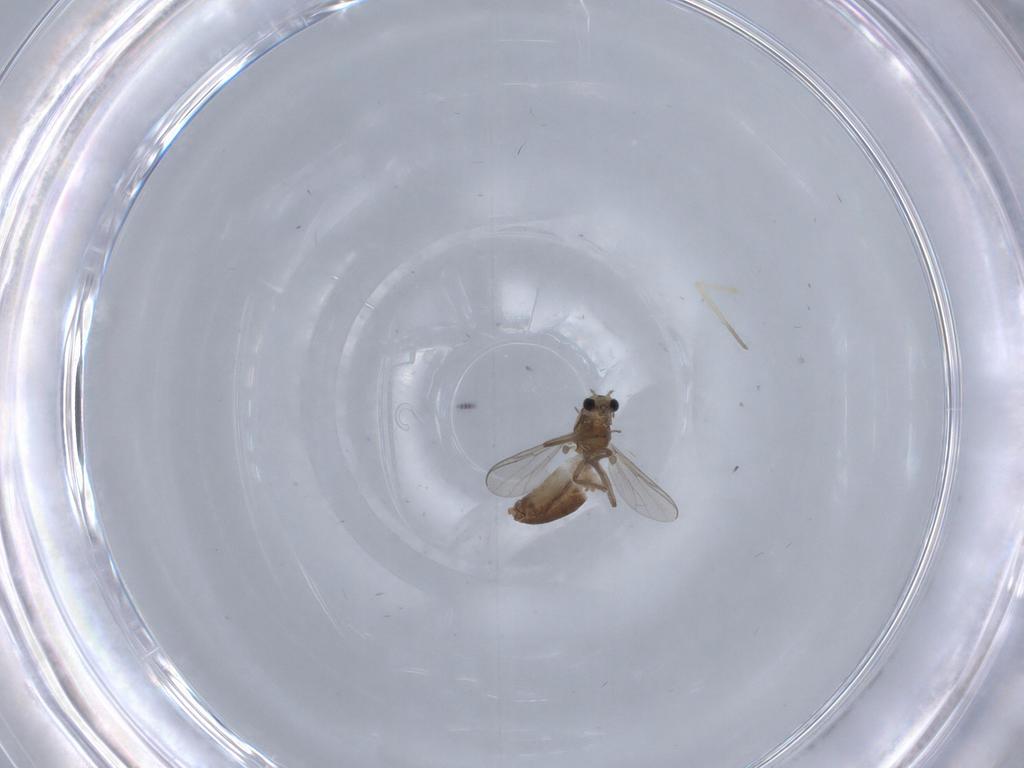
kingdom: Animalia
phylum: Arthropoda
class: Insecta
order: Diptera
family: Chironomidae
